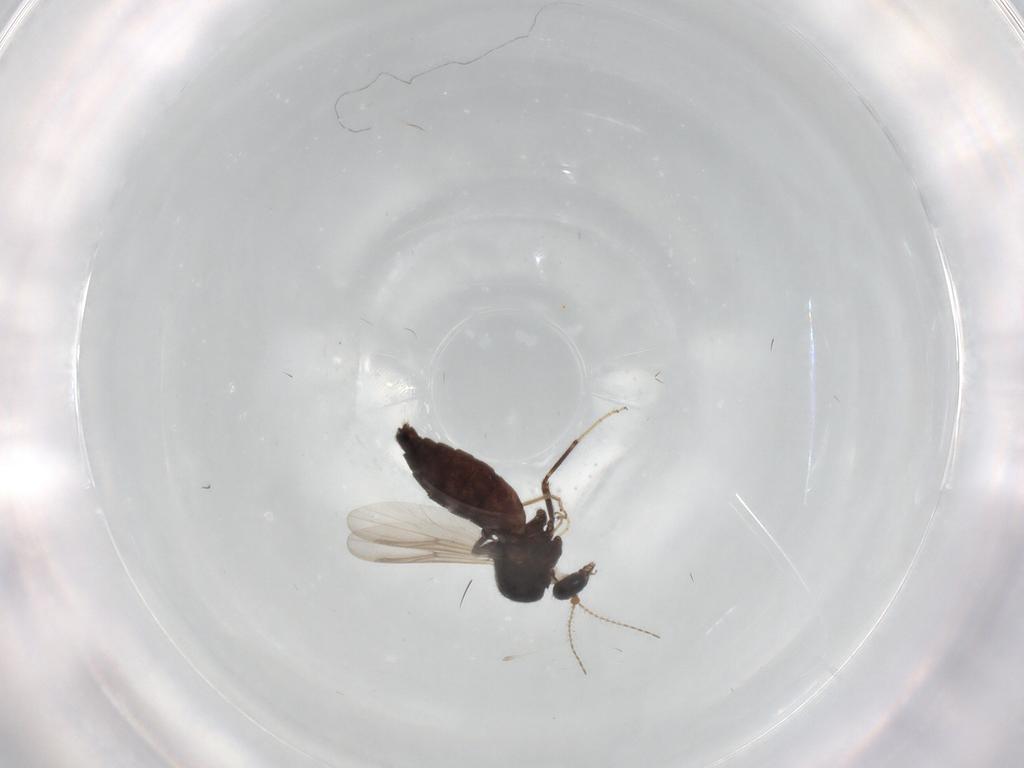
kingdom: Animalia
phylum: Arthropoda
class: Insecta
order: Diptera
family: Ceratopogonidae
